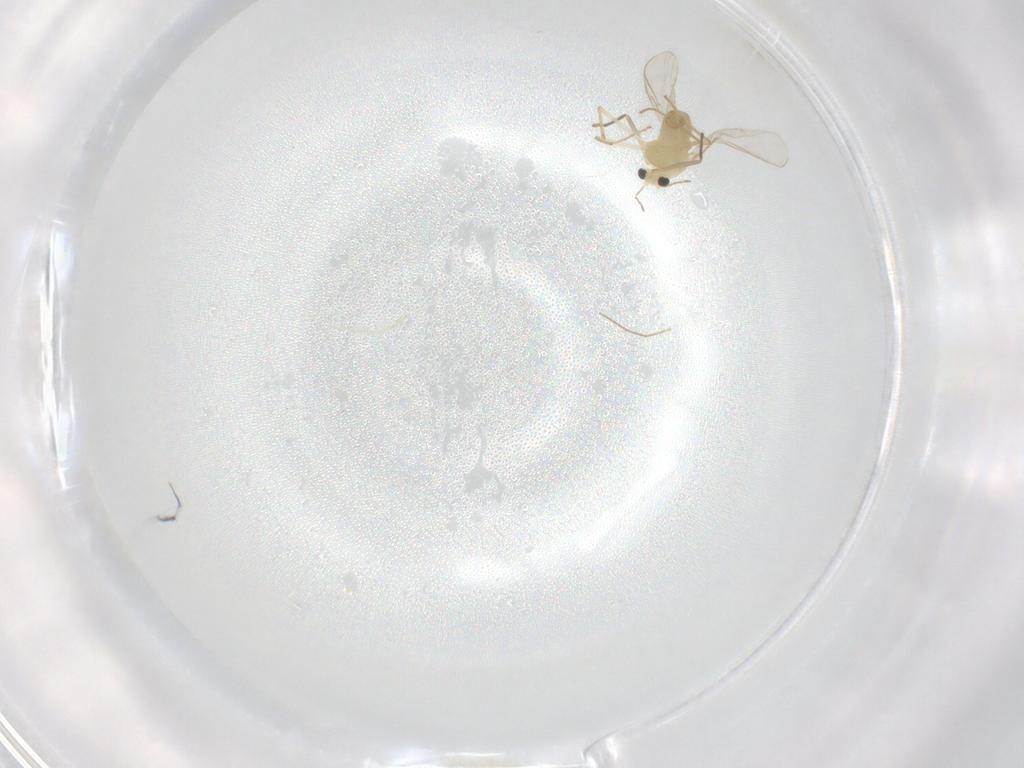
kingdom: Animalia
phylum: Arthropoda
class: Insecta
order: Diptera
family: Chironomidae
